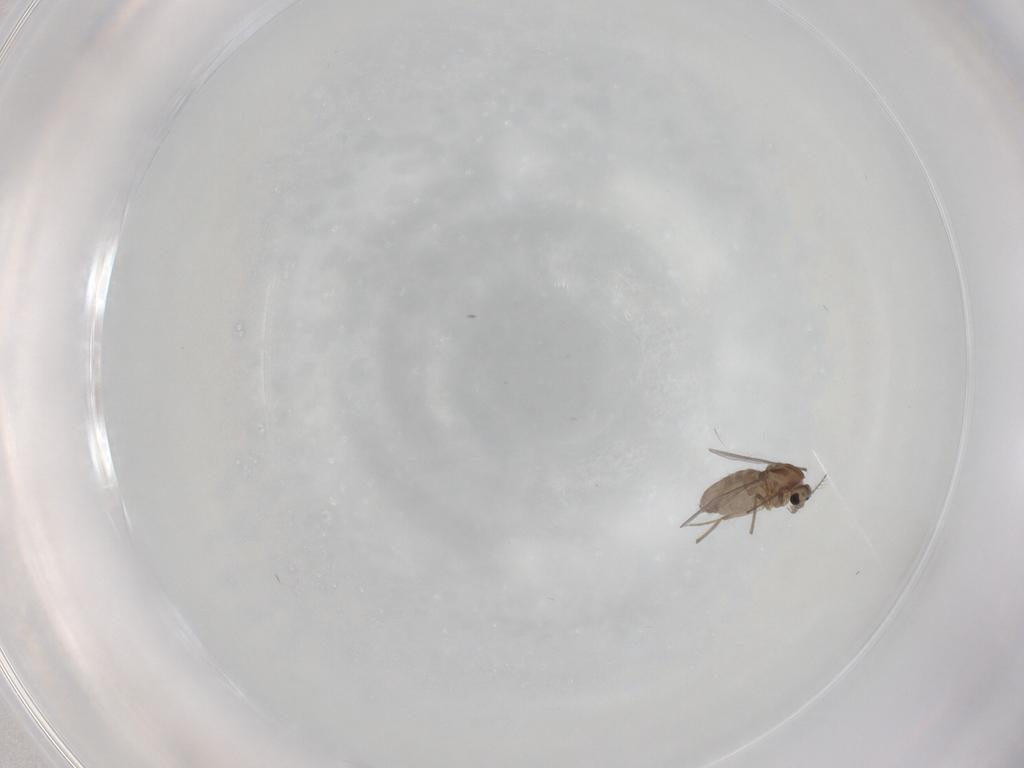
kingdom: Animalia
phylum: Arthropoda
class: Insecta
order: Diptera
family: Chironomidae
